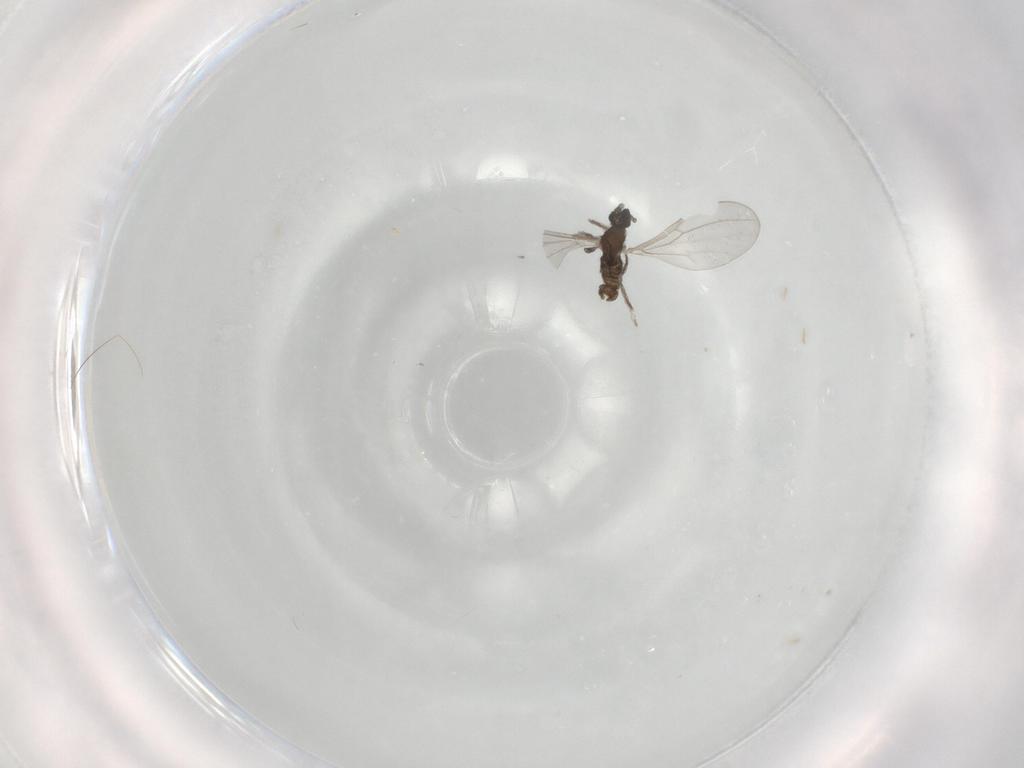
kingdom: Animalia
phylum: Arthropoda
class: Insecta
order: Diptera
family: Cecidomyiidae
